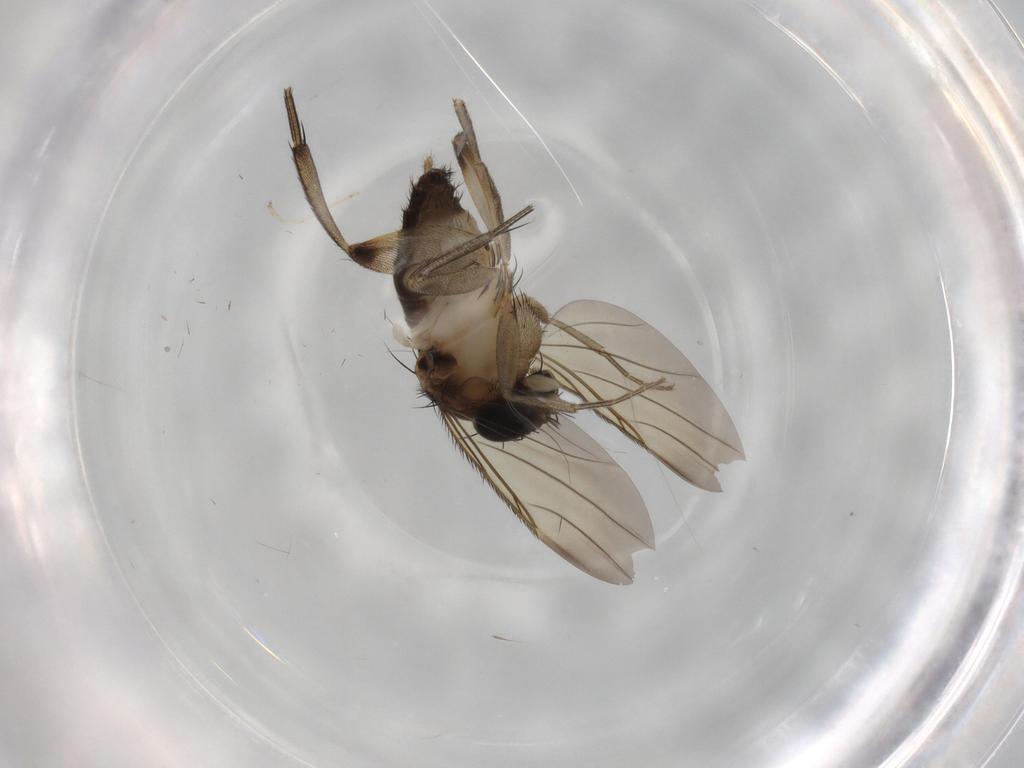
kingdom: Animalia
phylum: Arthropoda
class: Insecta
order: Diptera
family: Phoridae
